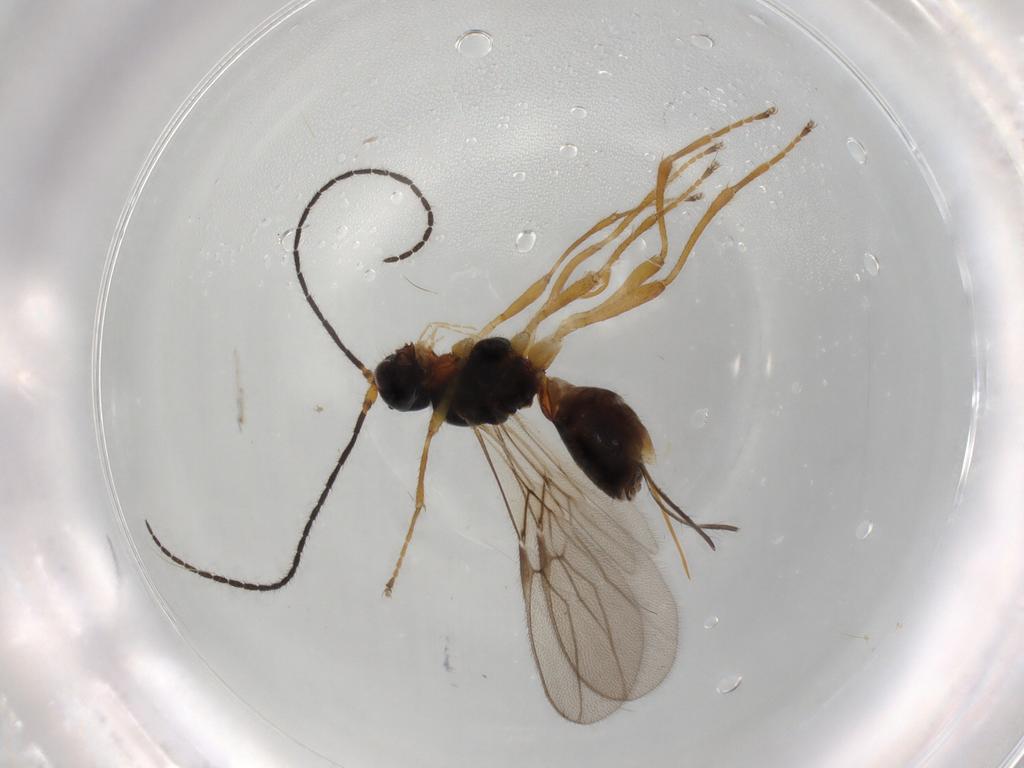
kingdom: Animalia
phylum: Arthropoda
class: Insecta
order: Hymenoptera
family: Braconidae
